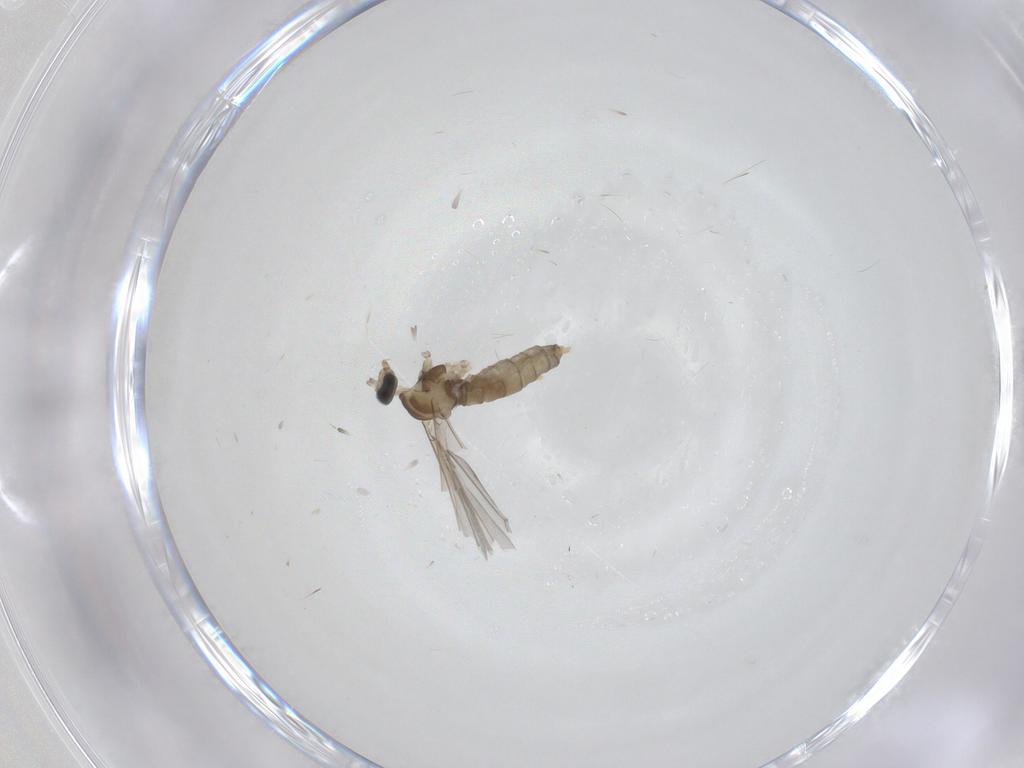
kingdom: Animalia
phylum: Arthropoda
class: Insecta
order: Diptera
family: Cecidomyiidae
